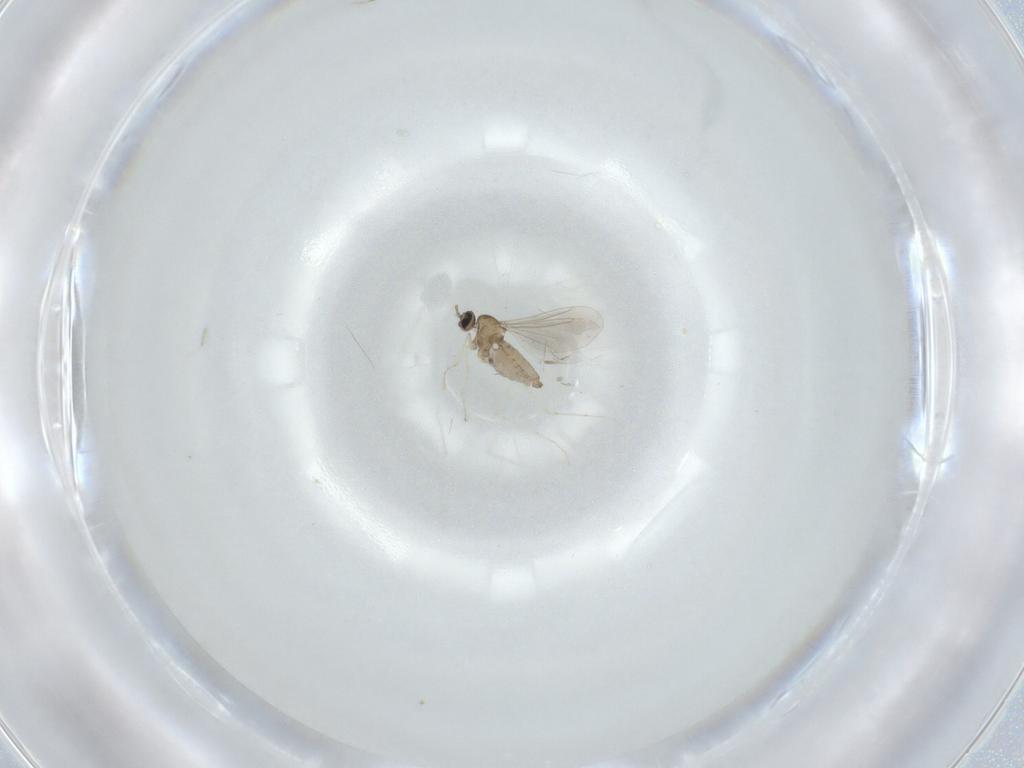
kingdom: Animalia
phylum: Arthropoda
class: Insecta
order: Diptera
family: Cecidomyiidae
